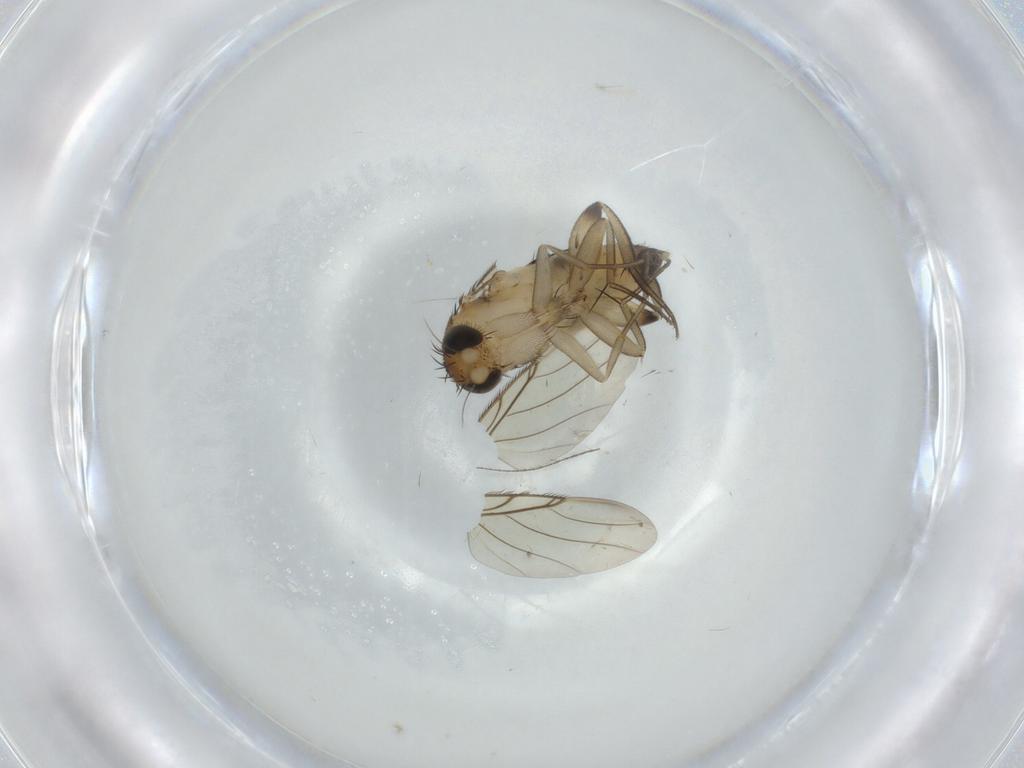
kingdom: Animalia
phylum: Arthropoda
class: Insecta
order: Diptera
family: Phoridae
